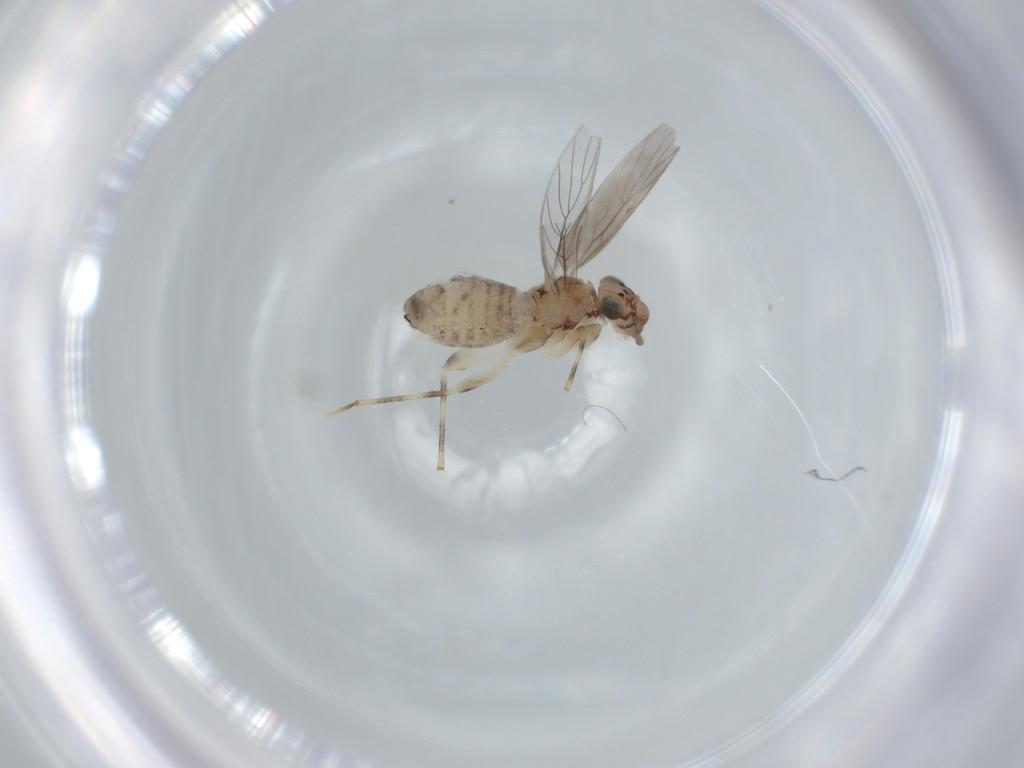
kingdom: Animalia
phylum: Arthropoda
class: Insecta
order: Psocodea
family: Lepidopsocidae
